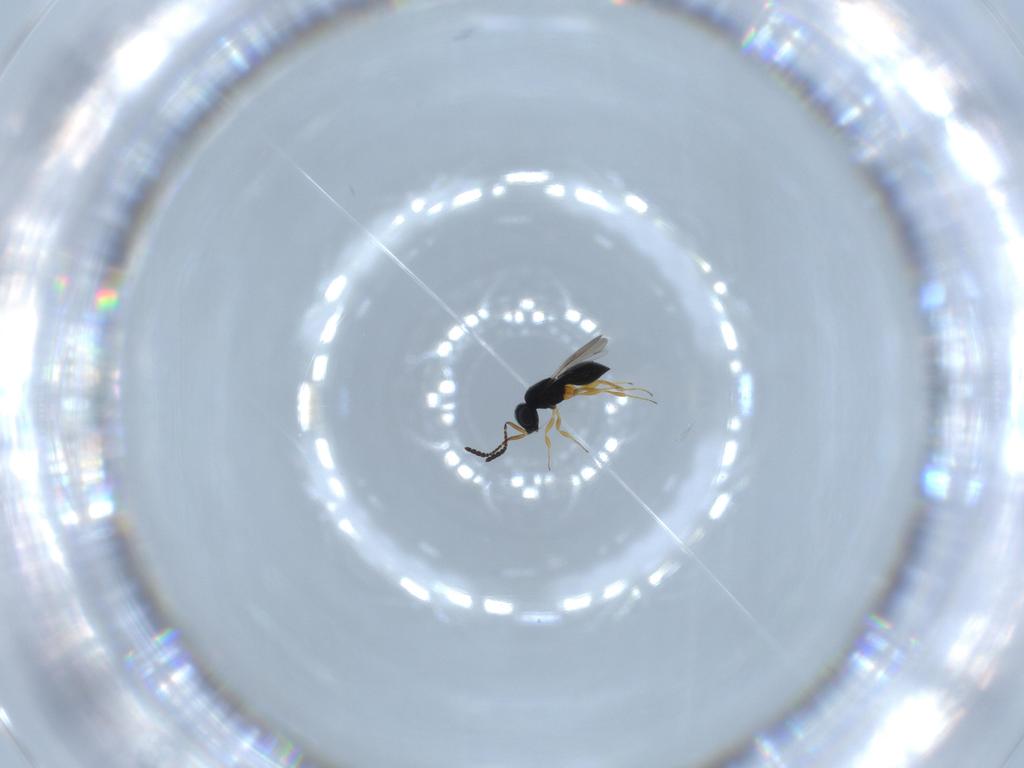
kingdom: Animalia
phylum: Arthropoda
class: Insecta
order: Hymenoptera
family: Scelionidae
